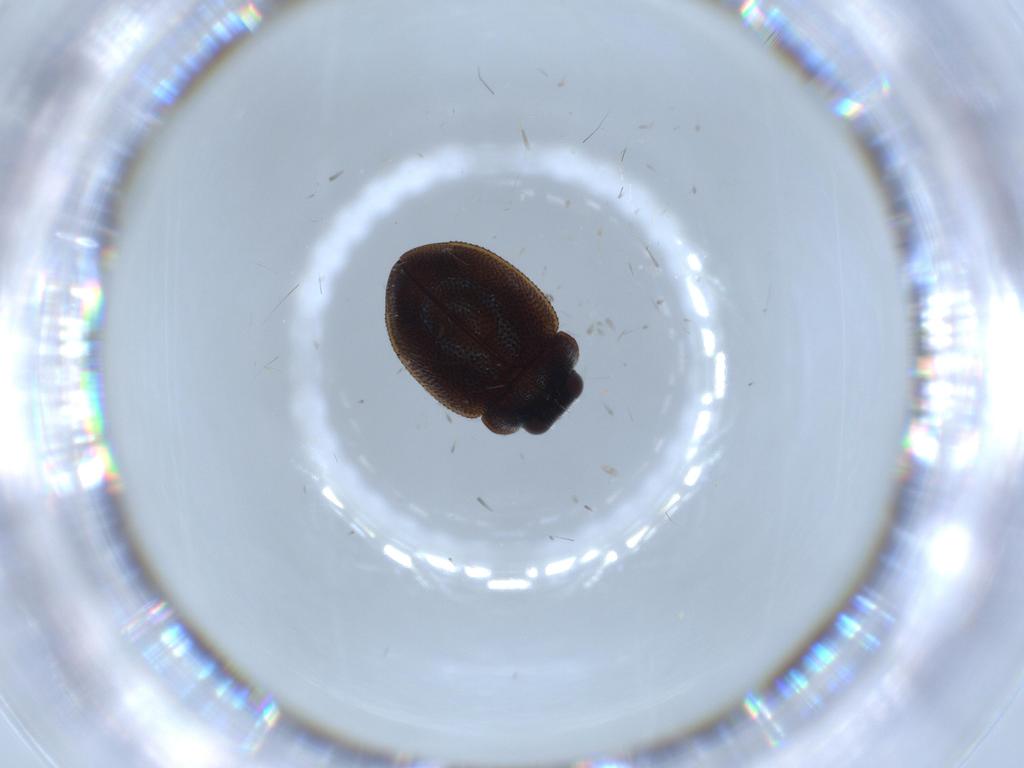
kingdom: Animalia
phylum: Arthropoda
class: Insecta
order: Coleoptera
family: Coccinellidae
